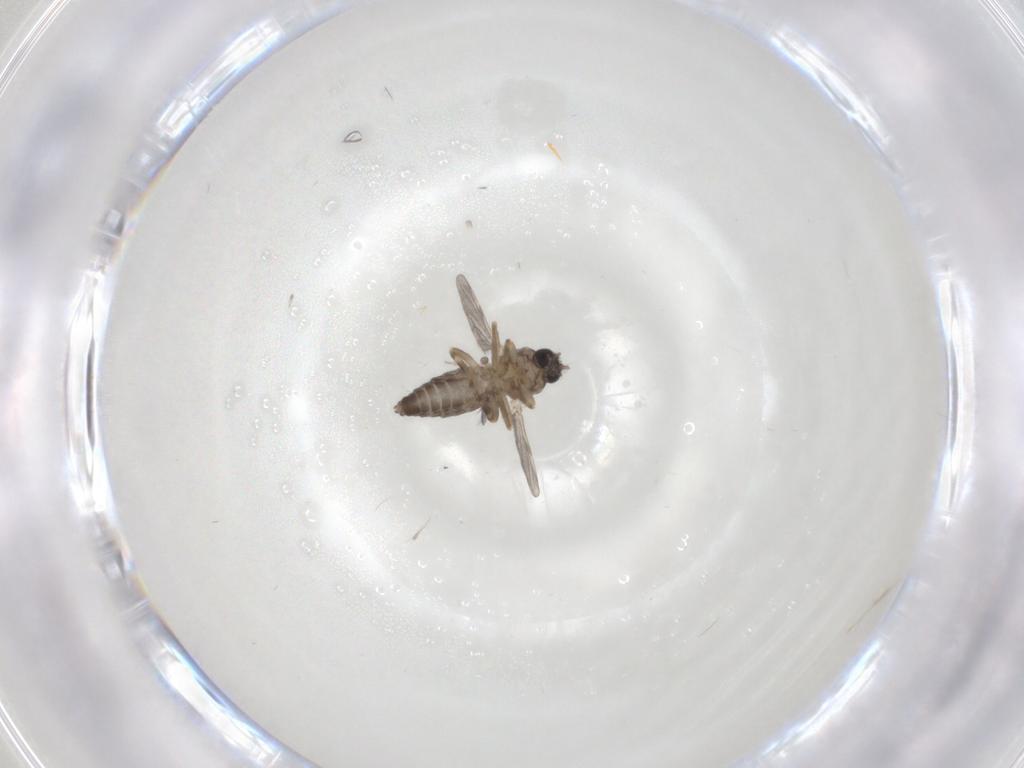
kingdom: Animalia
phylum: Arthropoda
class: Insecta
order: Diptera
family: Ceratopogonidae
